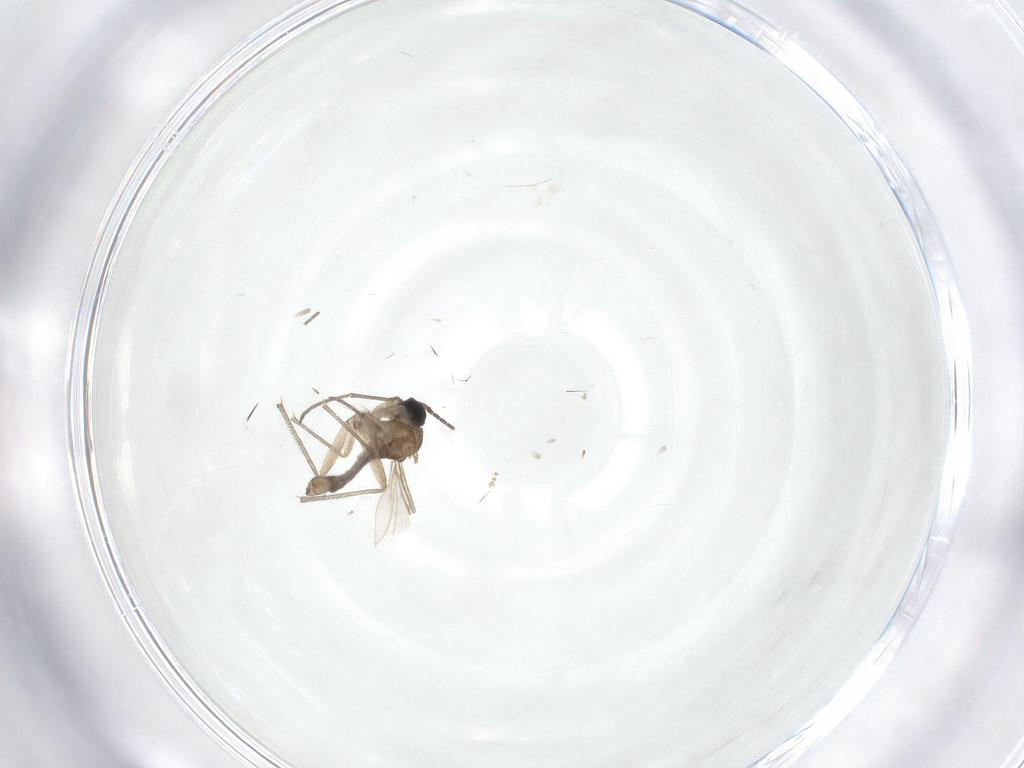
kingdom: Animalia
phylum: Arthropoda
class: Insecta
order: Diptera
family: Sciaridae
